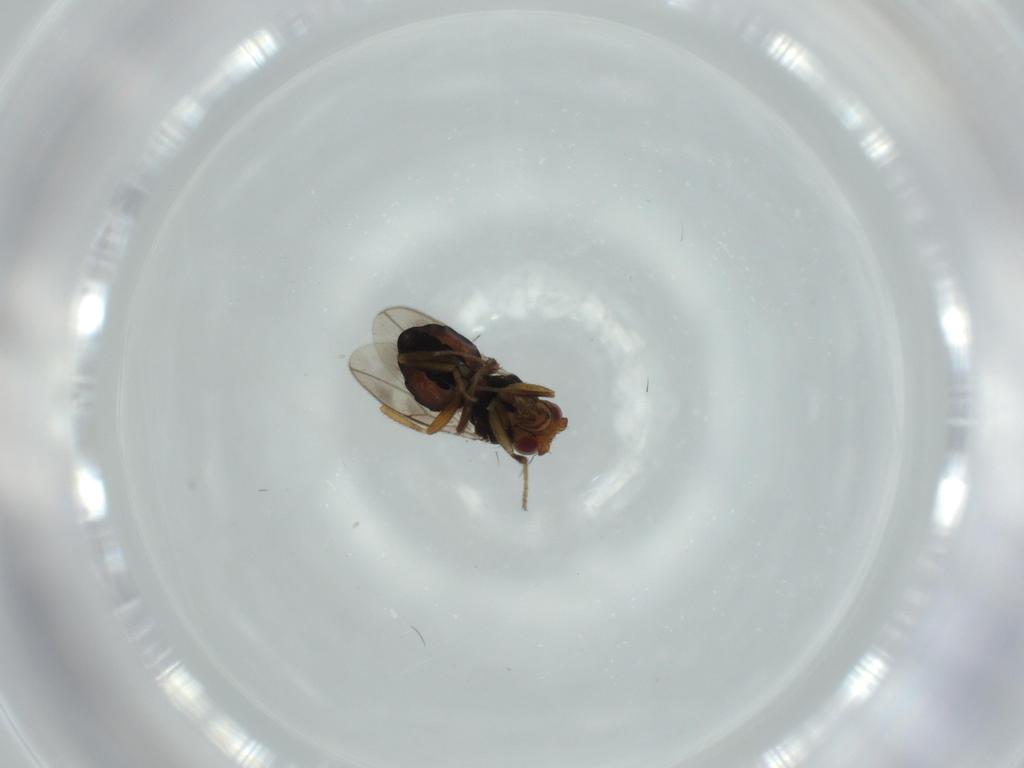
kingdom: Animalia
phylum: Arthropoda
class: Insecta
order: Diptera
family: Sphaeroceridae
